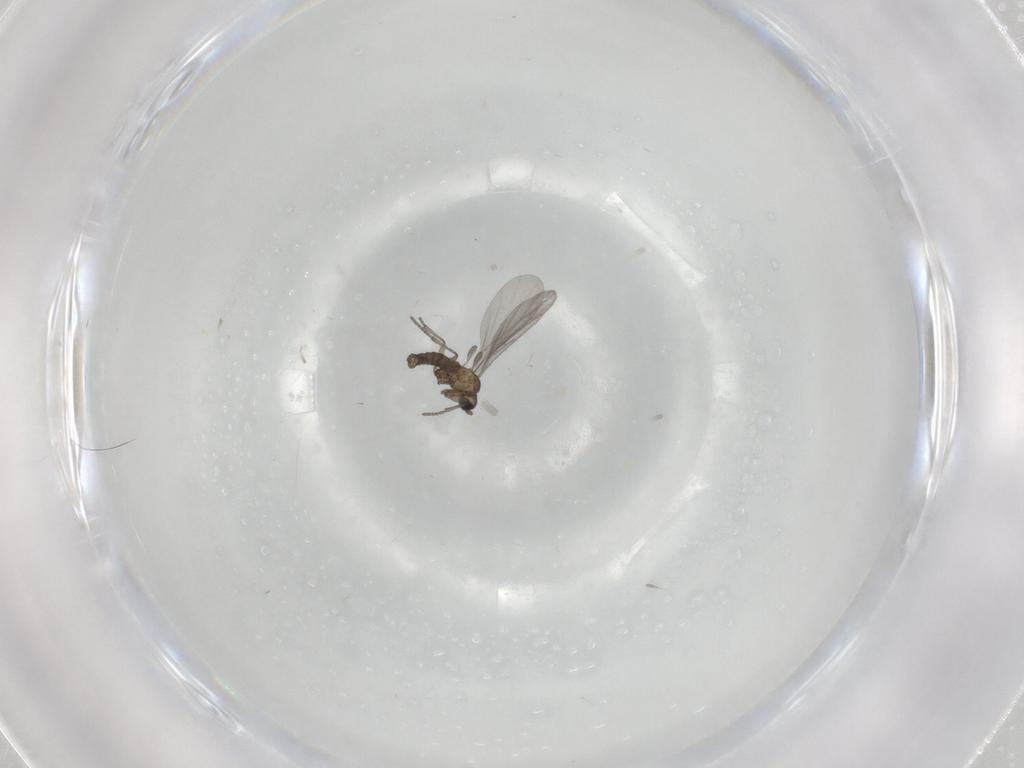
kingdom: Animalia
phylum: Arthropoda
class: Insecta
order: Diptera
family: Sciaridae
